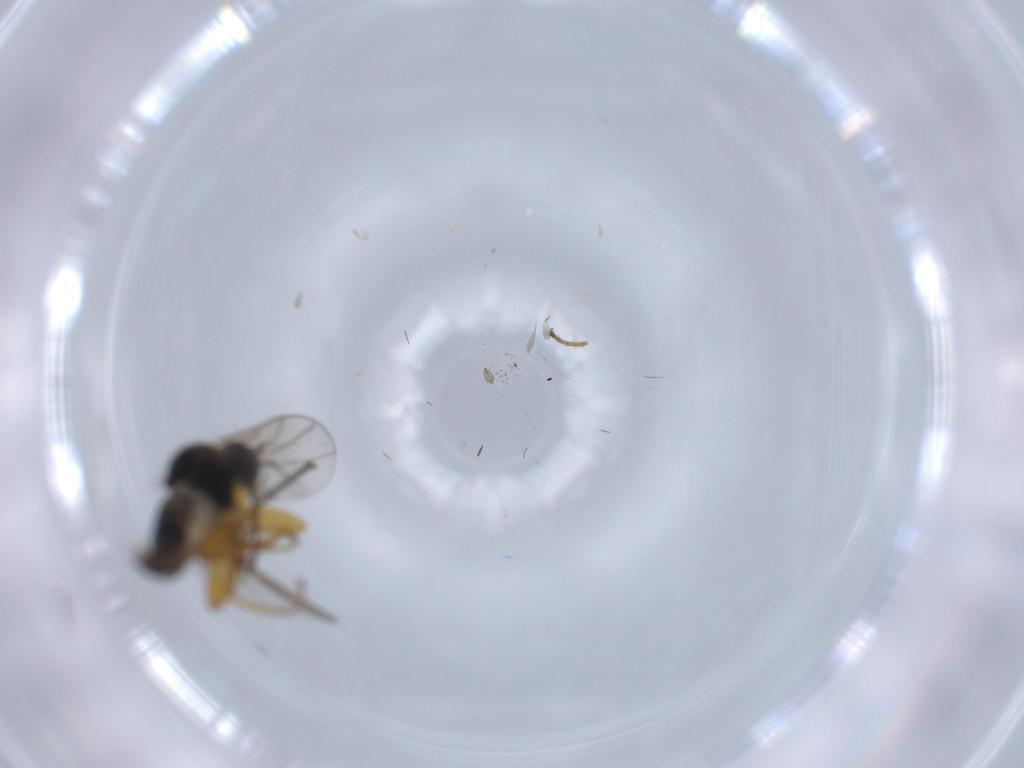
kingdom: Animalia
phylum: Arthropoda
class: Insecta
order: Diptera
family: Hybotidae
